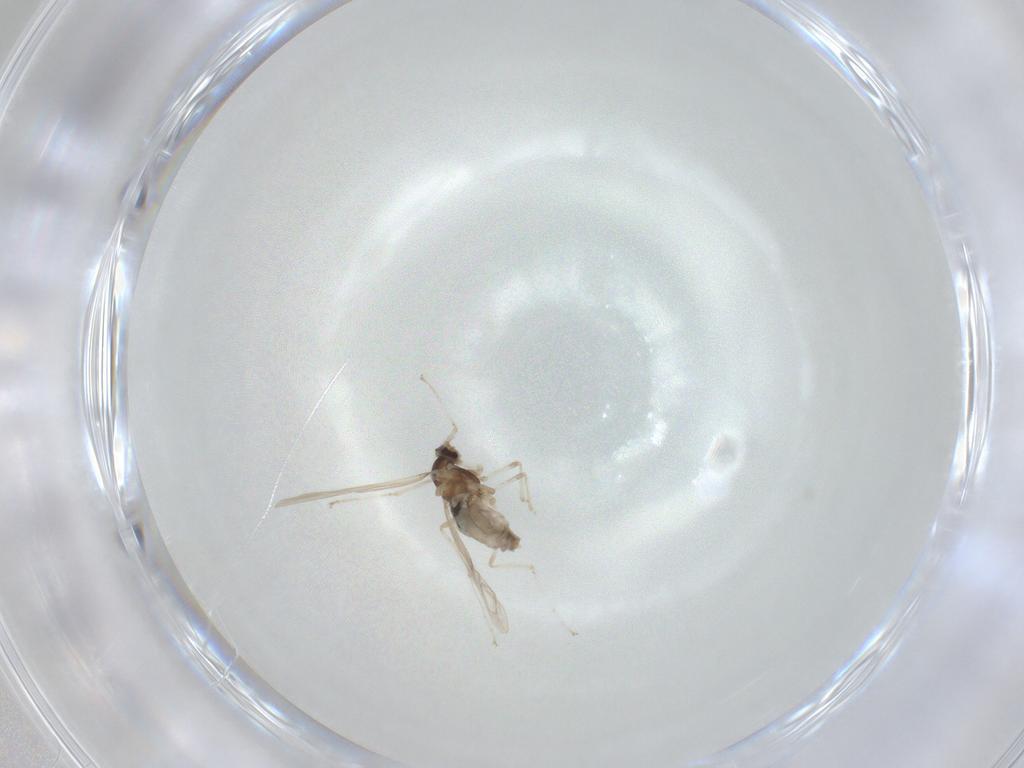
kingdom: Animalia
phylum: Arthropoda
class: Insecta
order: Diptera
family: Cecidomyiidae
